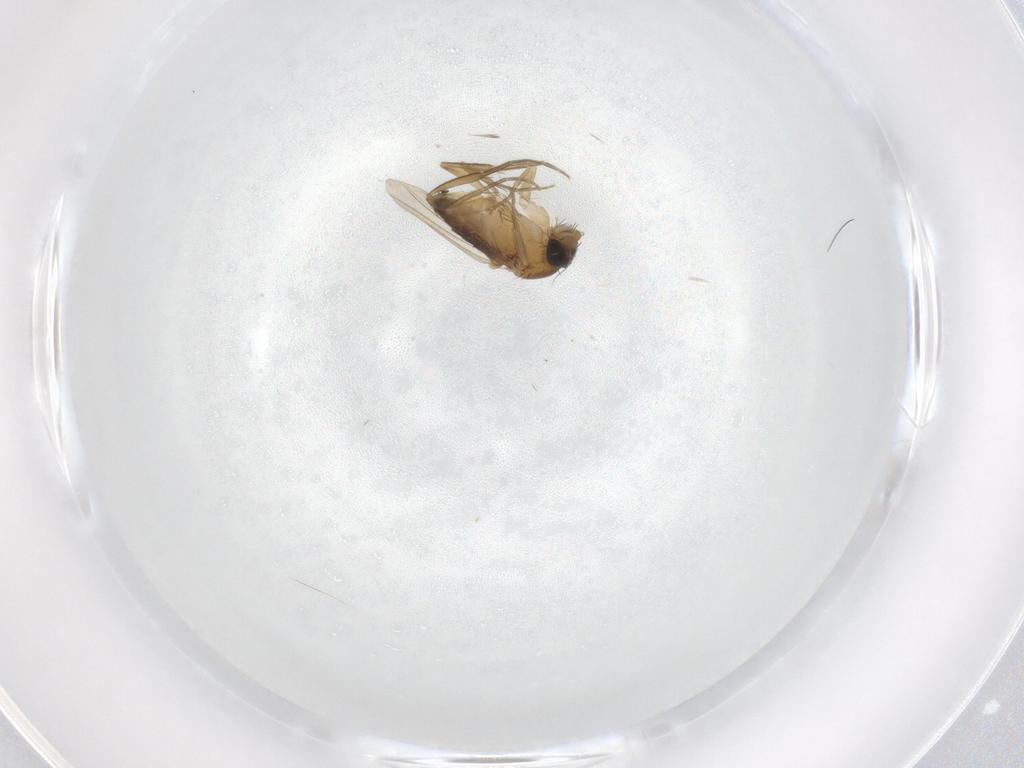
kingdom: Animalia
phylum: Arthropoda
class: Insecta
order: Diptera
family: Phoridae
